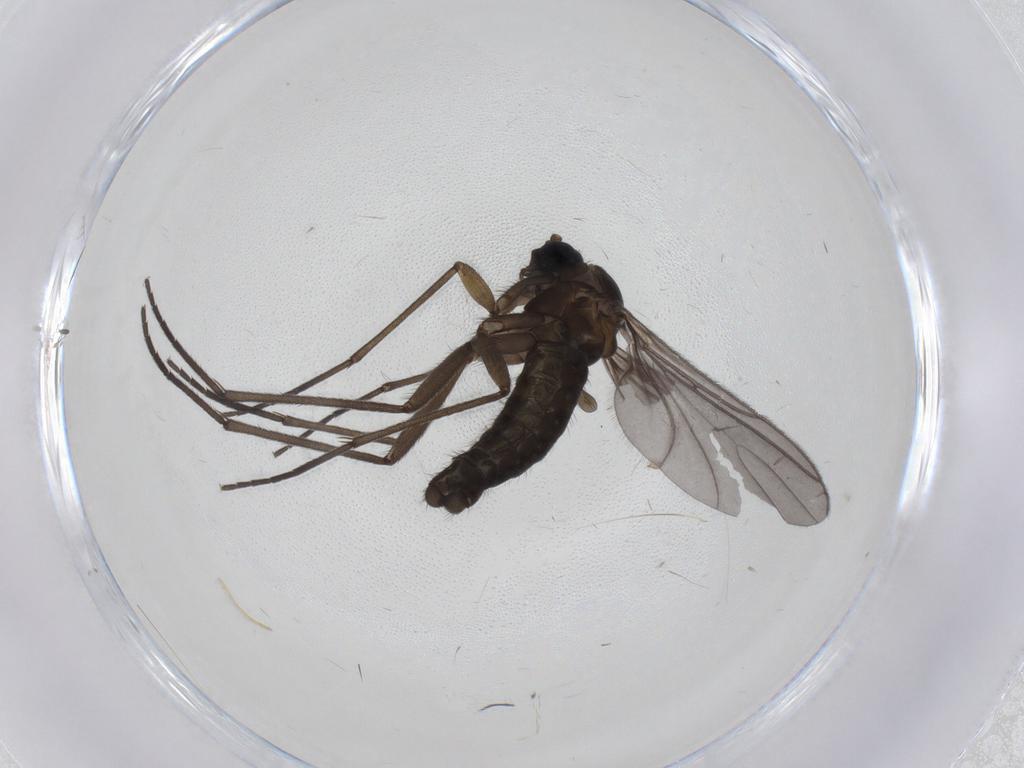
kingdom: Animalia
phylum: Arthropoda
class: Insecta
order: Diptera
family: Sciaridae
